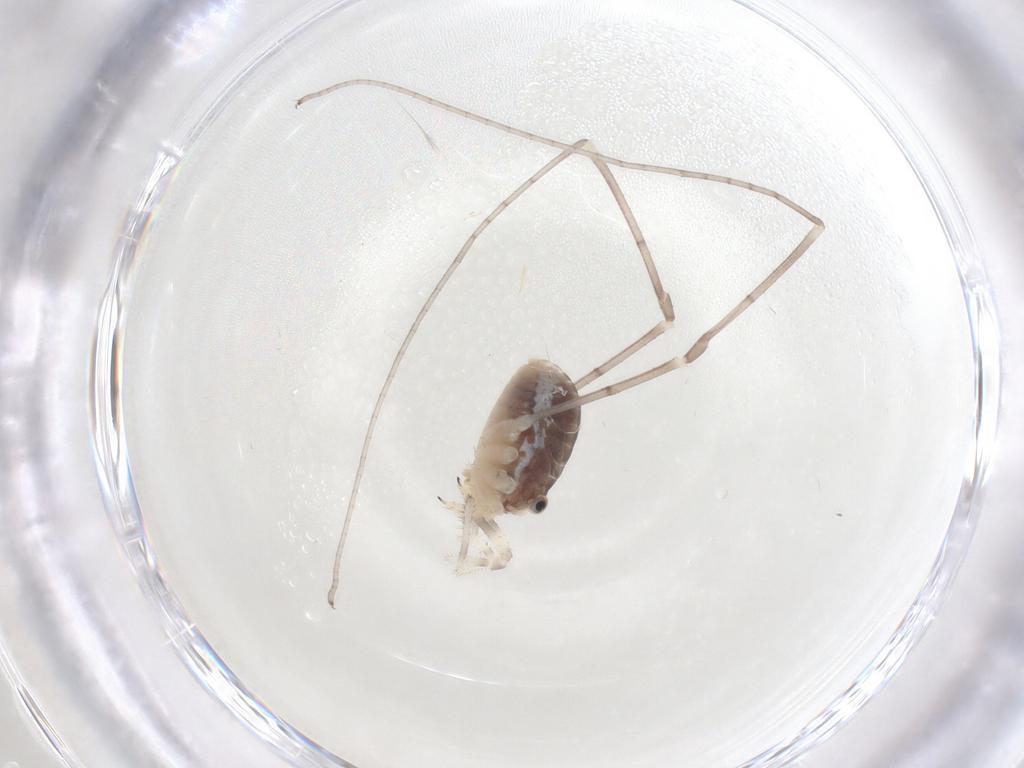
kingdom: Animalia
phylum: Arthropoda
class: Arachnida
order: Opiliones
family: Sclerosomatidae
